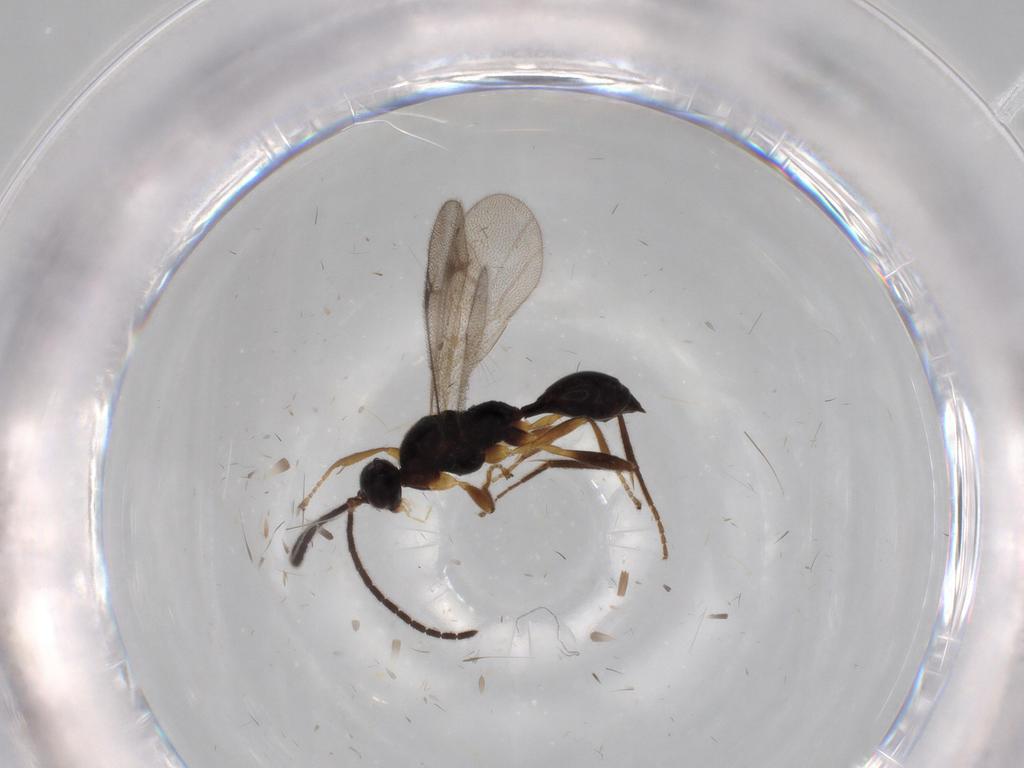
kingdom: Animalia
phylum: Arthropoda
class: Insecta
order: Hymenoptera
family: Proctotrupidae
